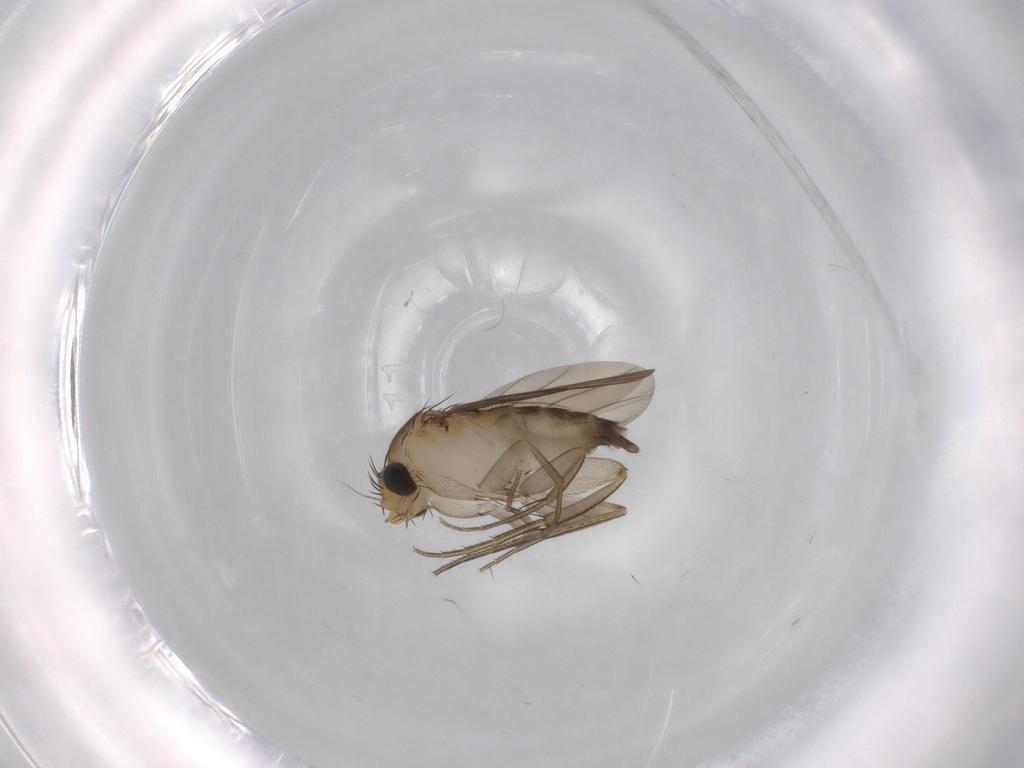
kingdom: Animalia
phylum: Arthropoda
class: Insecta
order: Diptera
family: Phoridae
